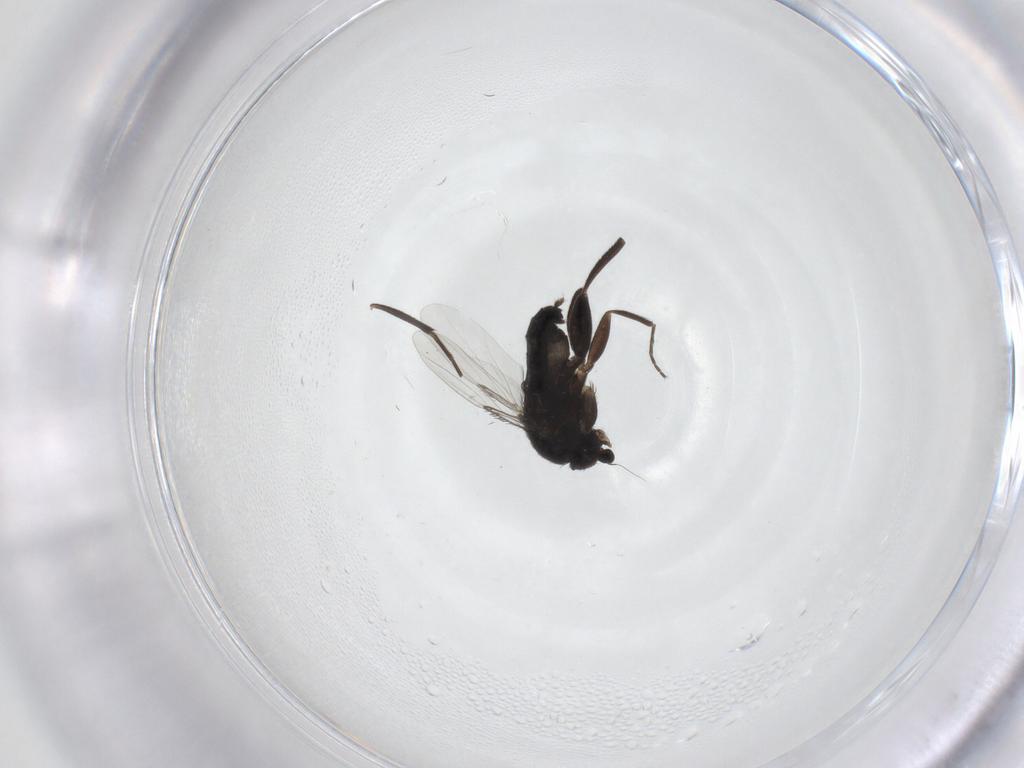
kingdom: Animalia
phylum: Arthropoda
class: Insecta
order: Diptera
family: Phoridae
